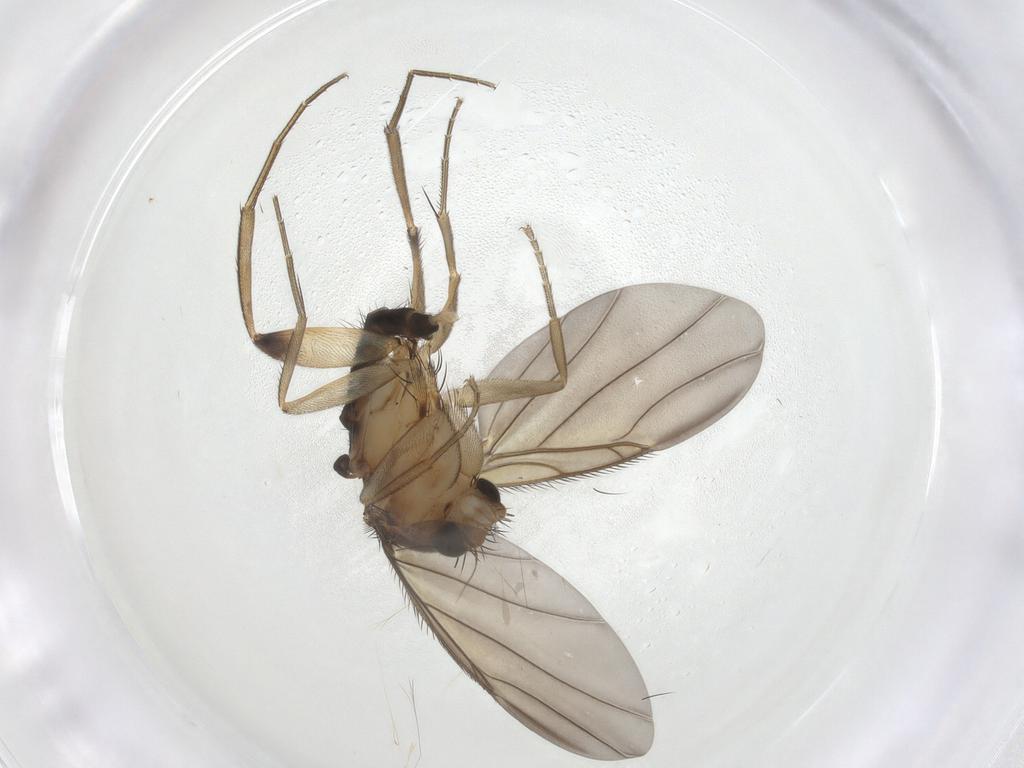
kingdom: Animalia
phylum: Arthropoda
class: Insecta
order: Diptera
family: Phoridae
